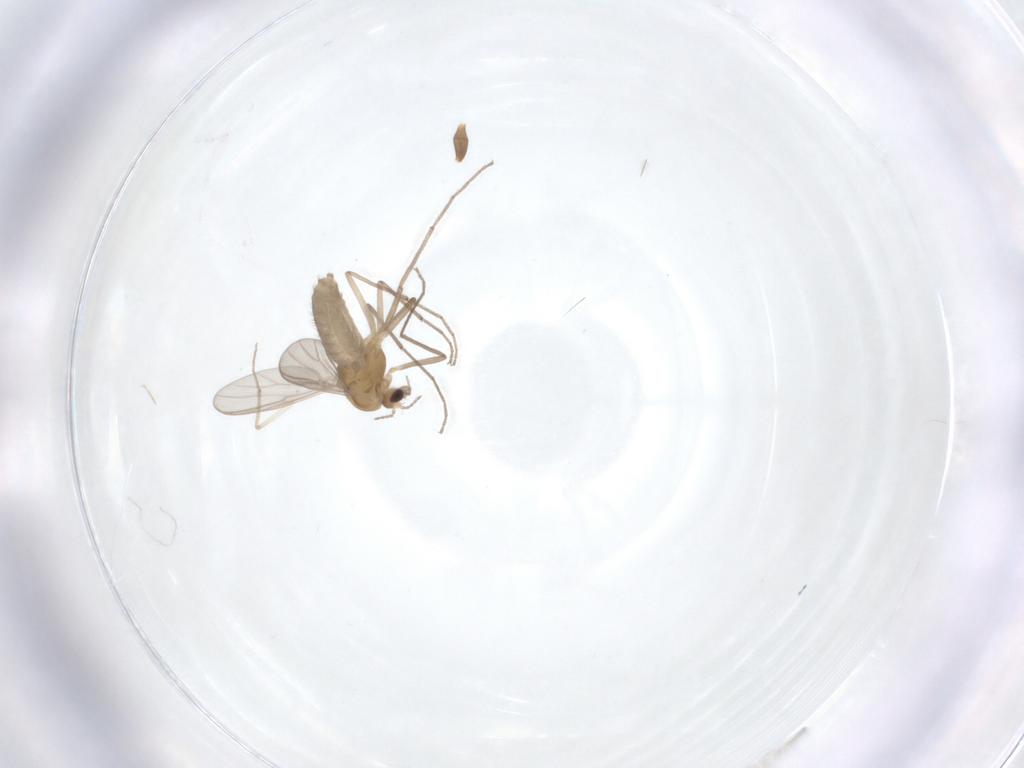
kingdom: Animalia
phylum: Arthropoda
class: Insecta
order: Diptera
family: Chironomidae
